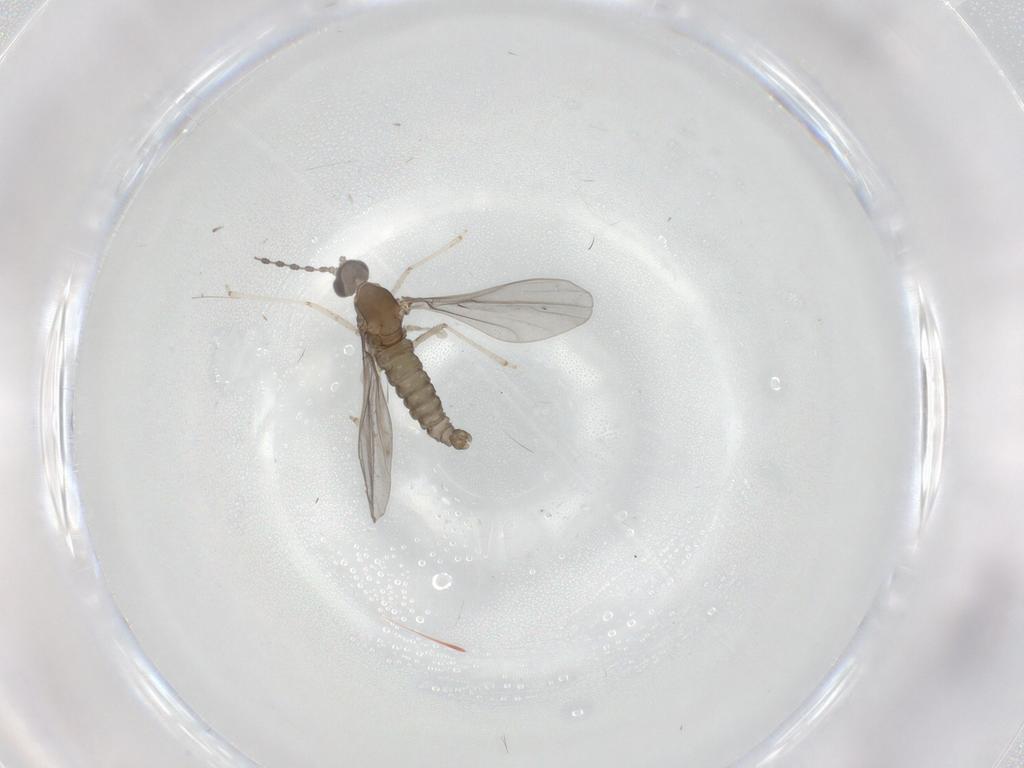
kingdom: Animalia
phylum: Arthropoda
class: Insecta
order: Diptera
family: Cecidomyiidae
